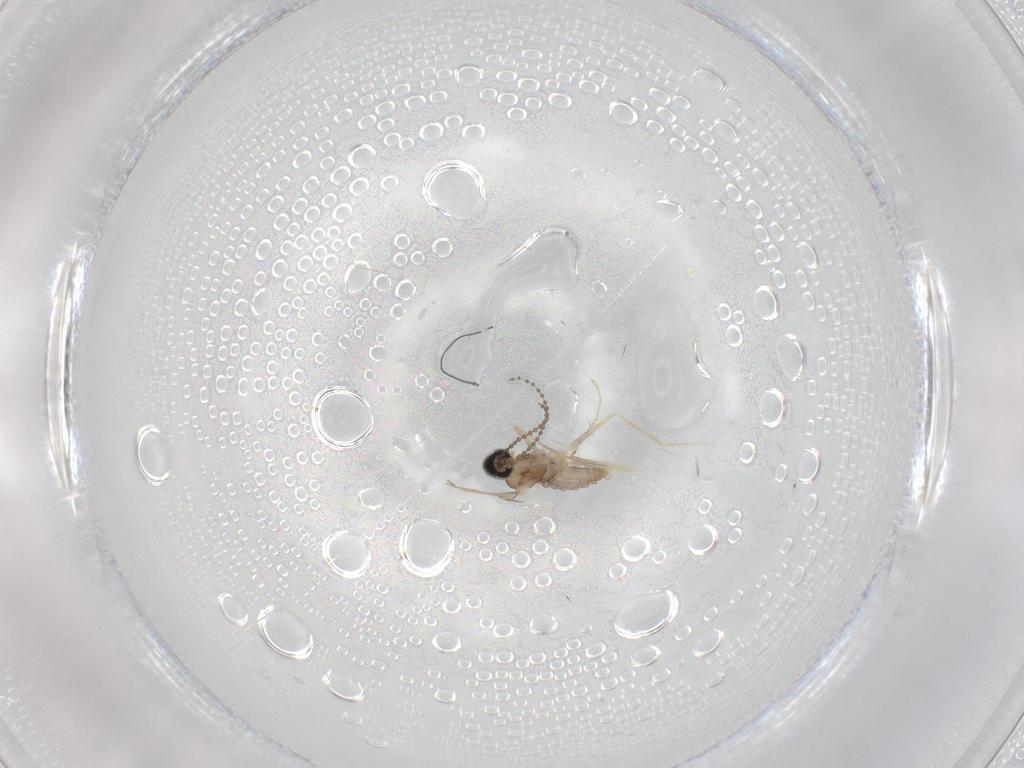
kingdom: Animalia
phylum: Arthropoda
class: Insecta
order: Diptera
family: Cecidomyiidae
